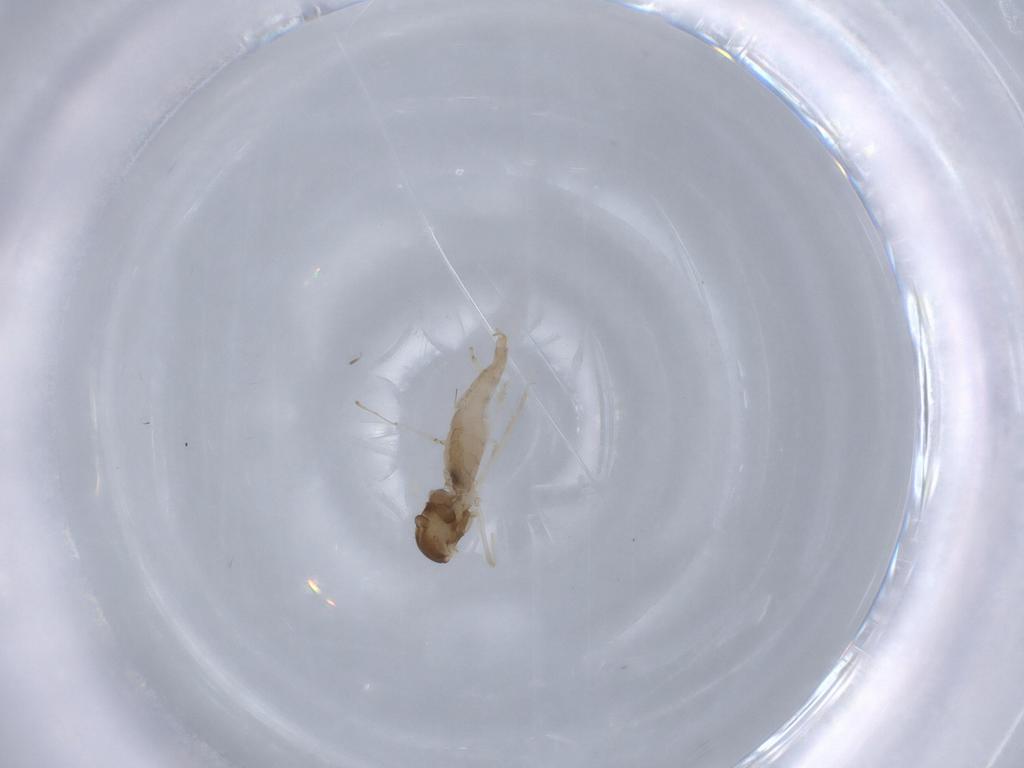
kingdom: Animalia
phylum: Arthropoda
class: Insecta
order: Diptera
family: Cecidomyiidae
